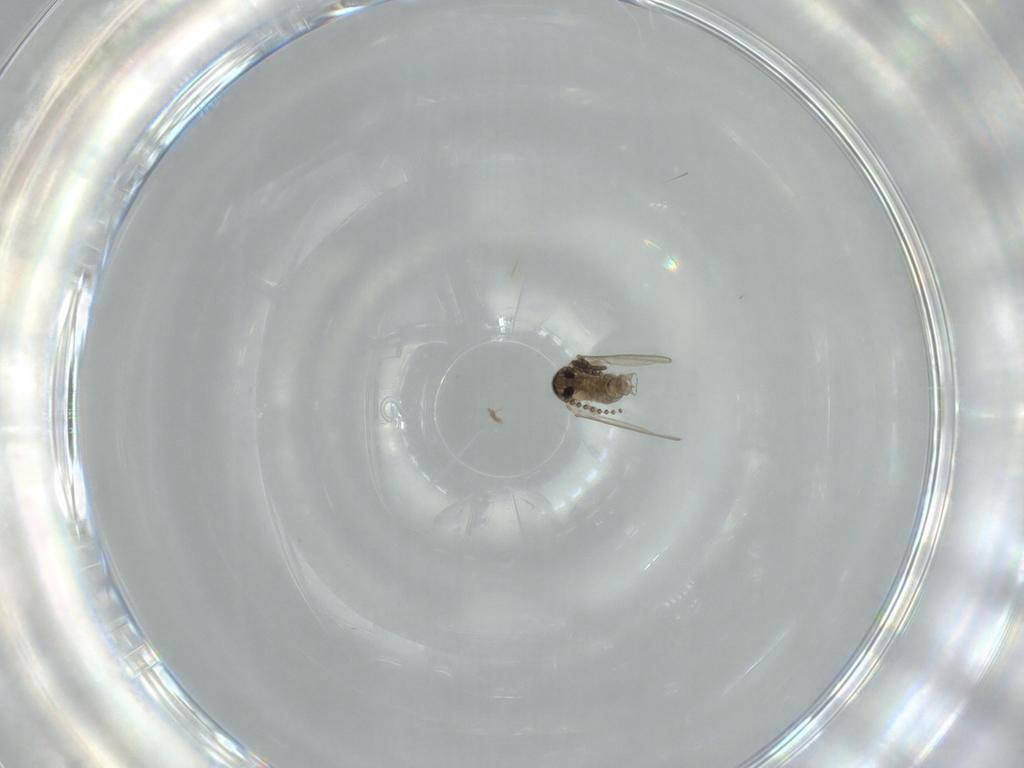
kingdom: Animalia
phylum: Arthropoda
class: Insecta
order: Diptera
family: Psychodidae
